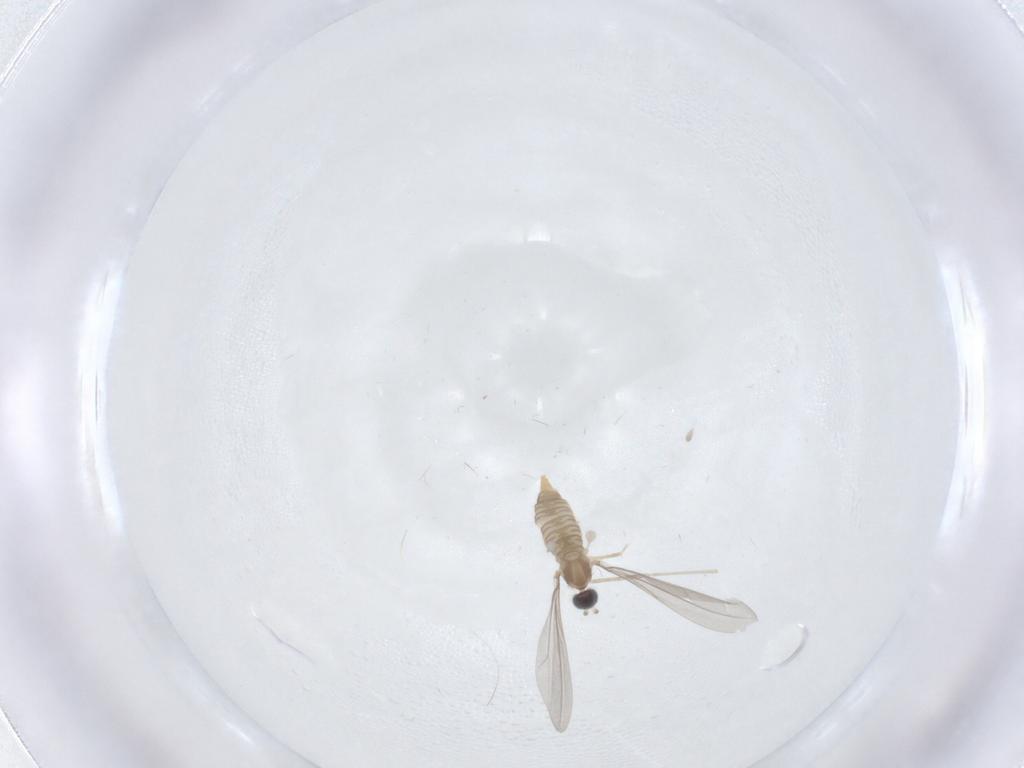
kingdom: Animalia
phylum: Arthropoda
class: Insecta
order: Diptera
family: Cecidomyiidae
